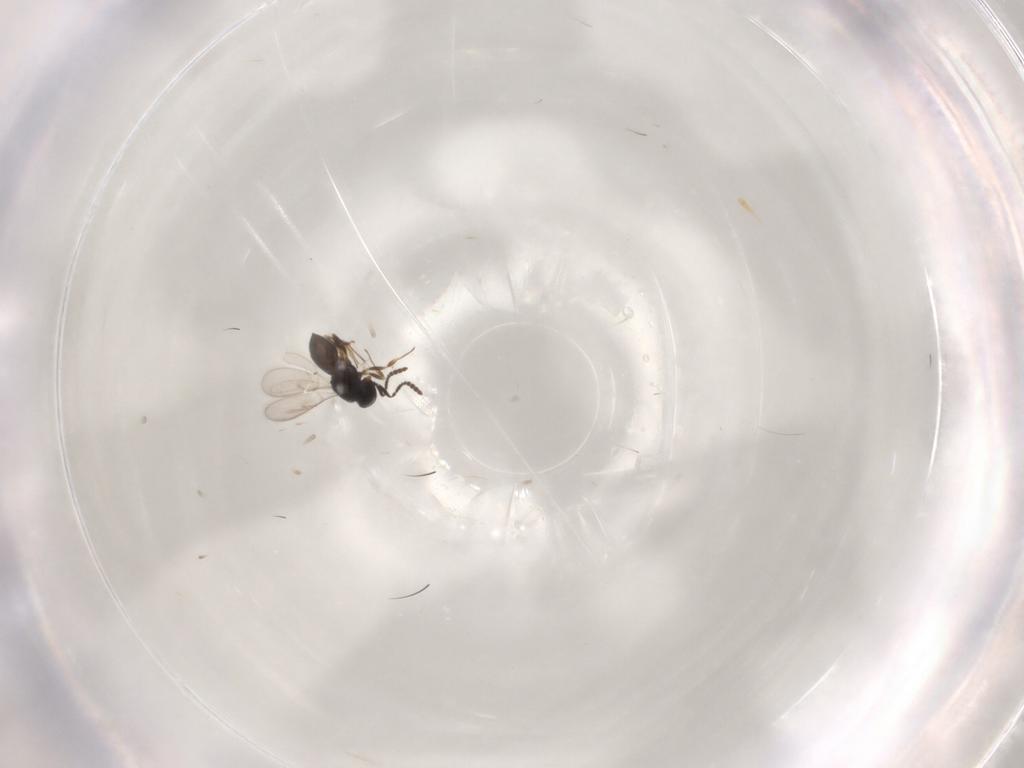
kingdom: Animalia
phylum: Arthropoda
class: Insecta
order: Hymenoptera
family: Scelionidae
